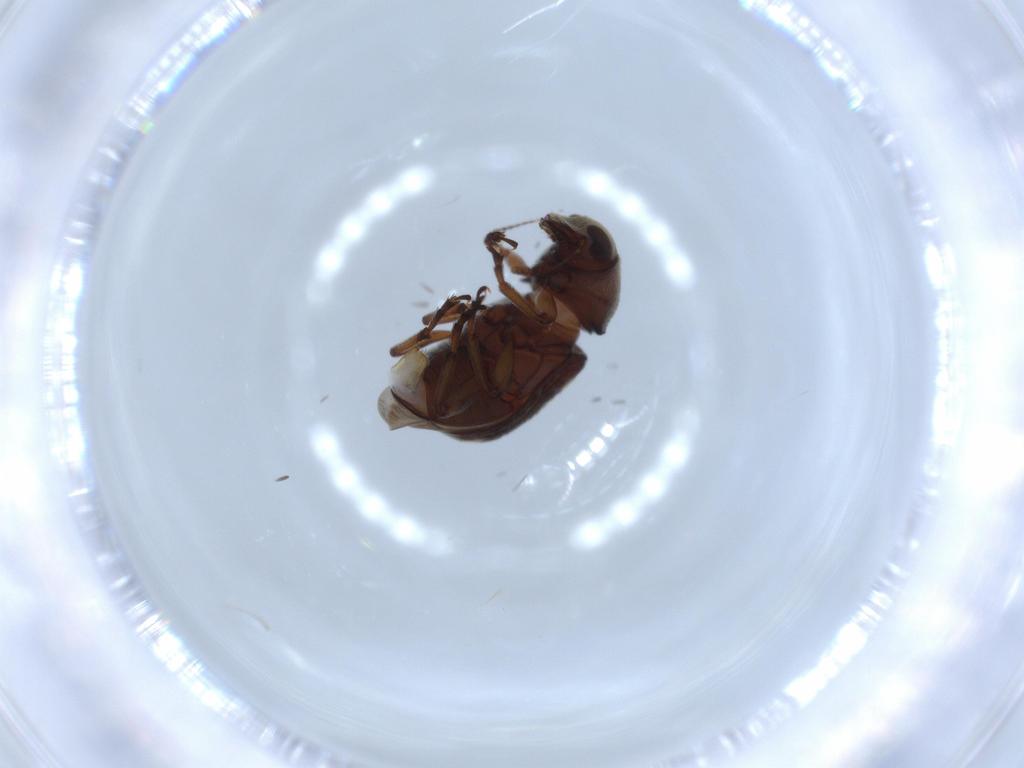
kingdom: Animalia
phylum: Arthropoda
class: Insecta
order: Coleoptera
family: Anthribidae
